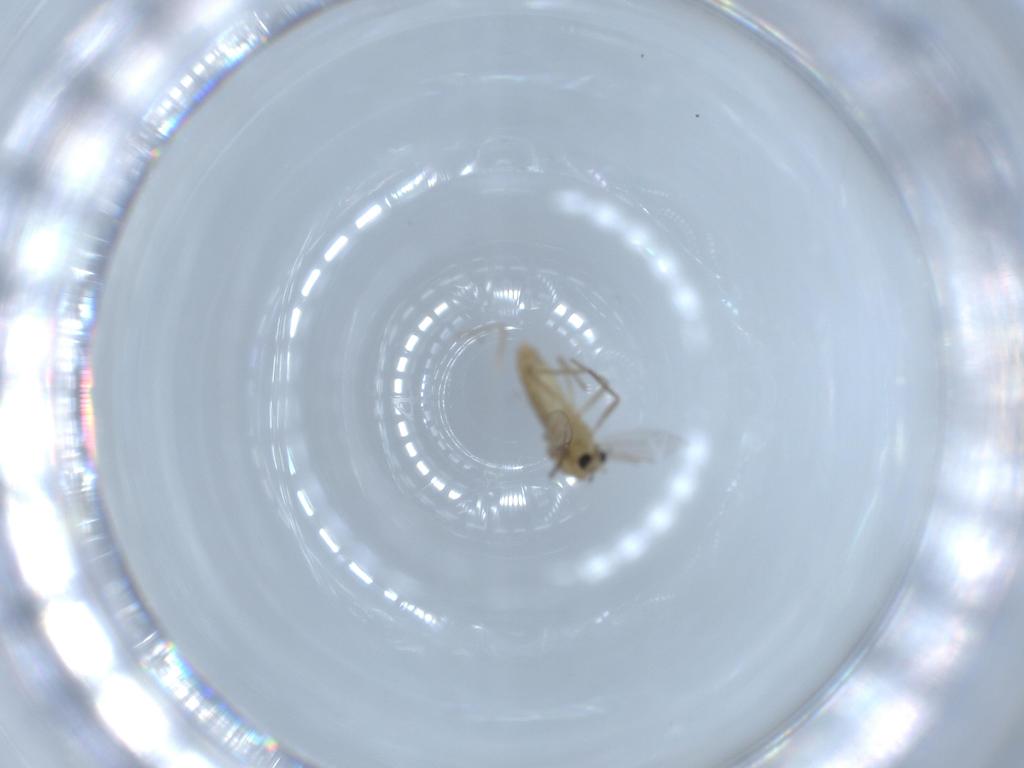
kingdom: Animalia
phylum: Arthropoda
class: Insecta
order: Diptera
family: Chironomidae
